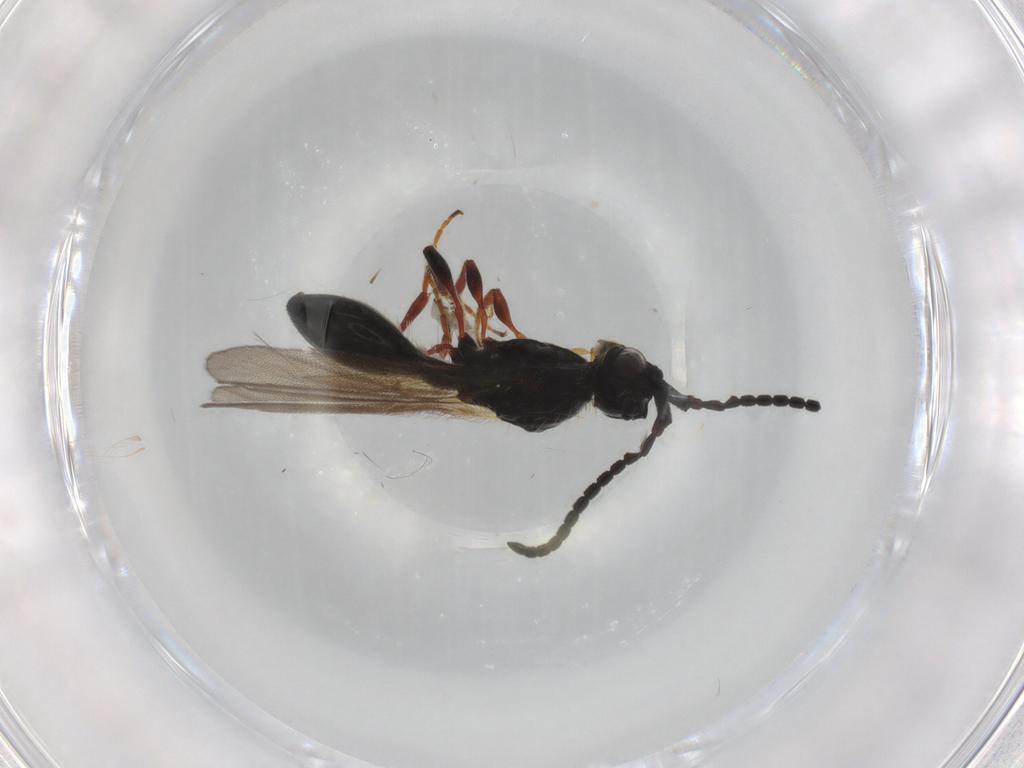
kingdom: Animalia
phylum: Arthropoda
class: Insecta
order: Hymenoptera
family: Diapriidae
